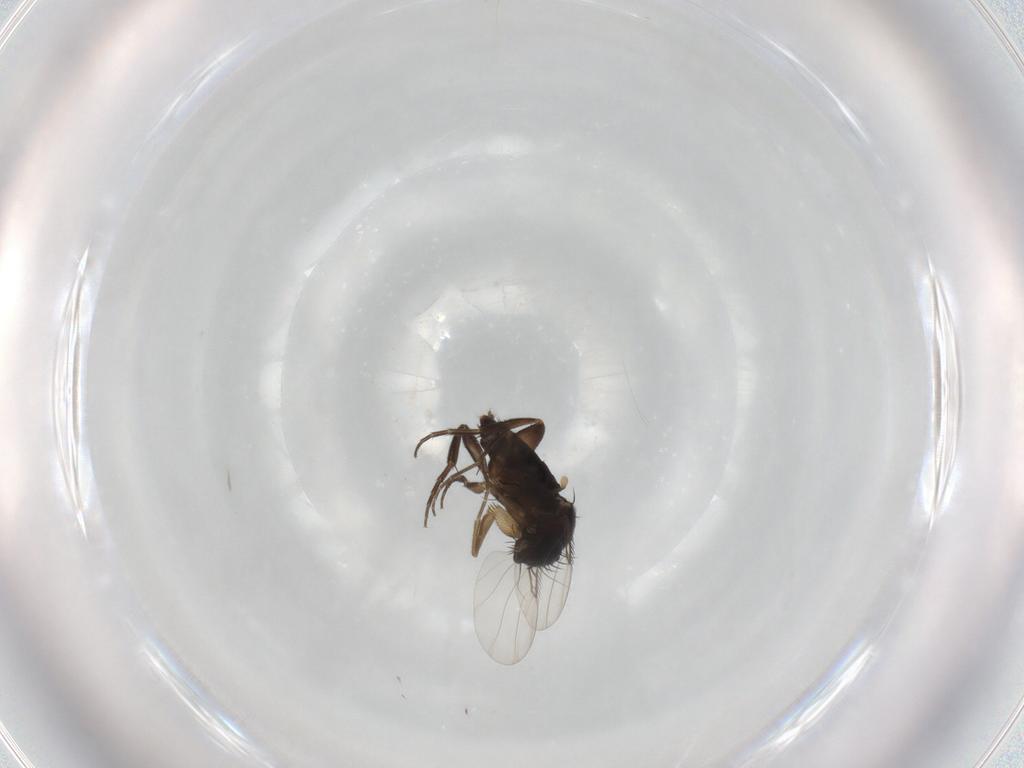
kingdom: Animalia
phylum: Arthropoda
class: Insecta
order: Diptera
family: Phoridae
